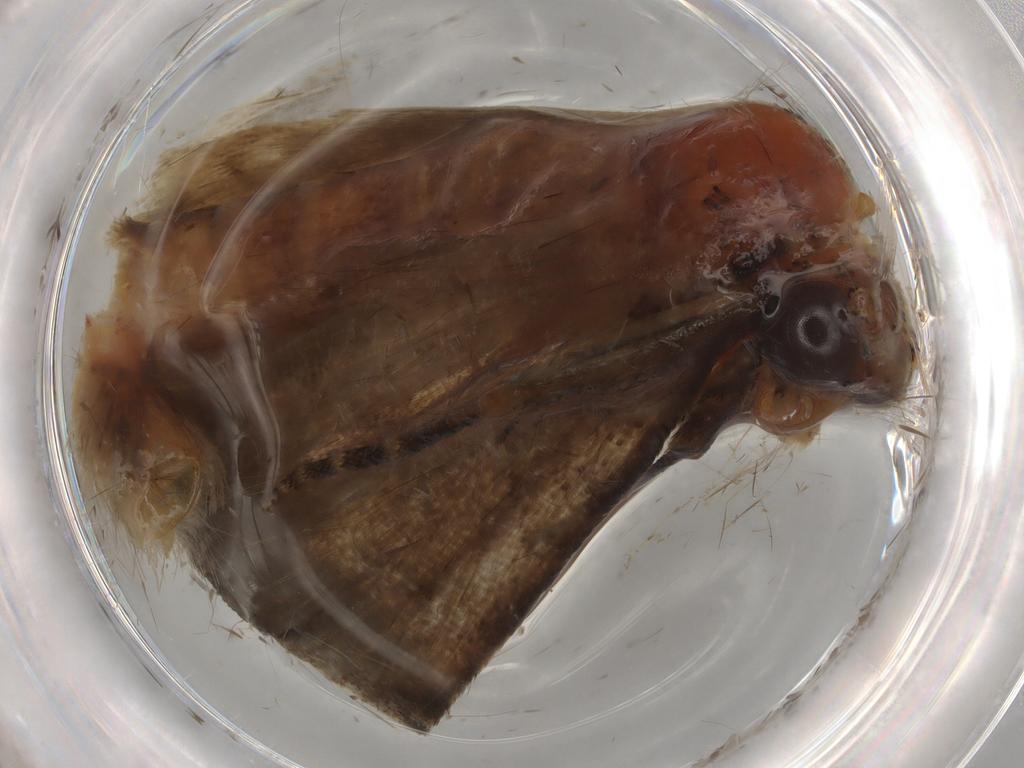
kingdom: Animalia
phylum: Arthropoda
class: Insecta
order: Lepidoptera
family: Erebidae
